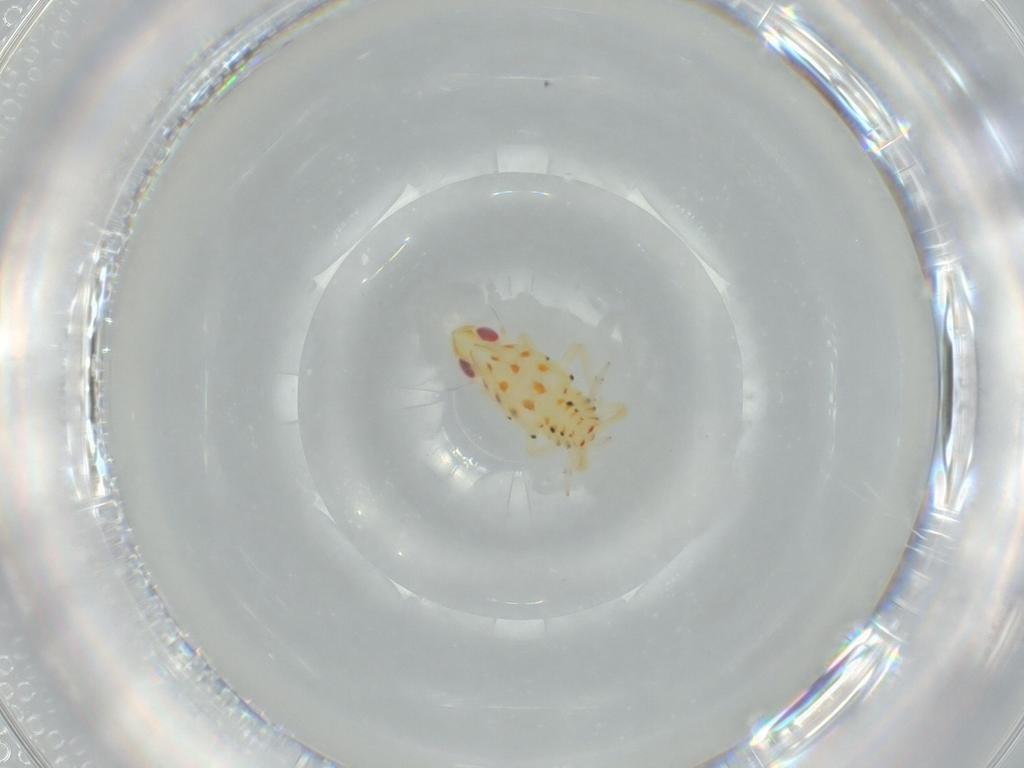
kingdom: Animalia
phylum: Arthropoda
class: Insecta
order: Hemiptera
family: Tropiduchidae
